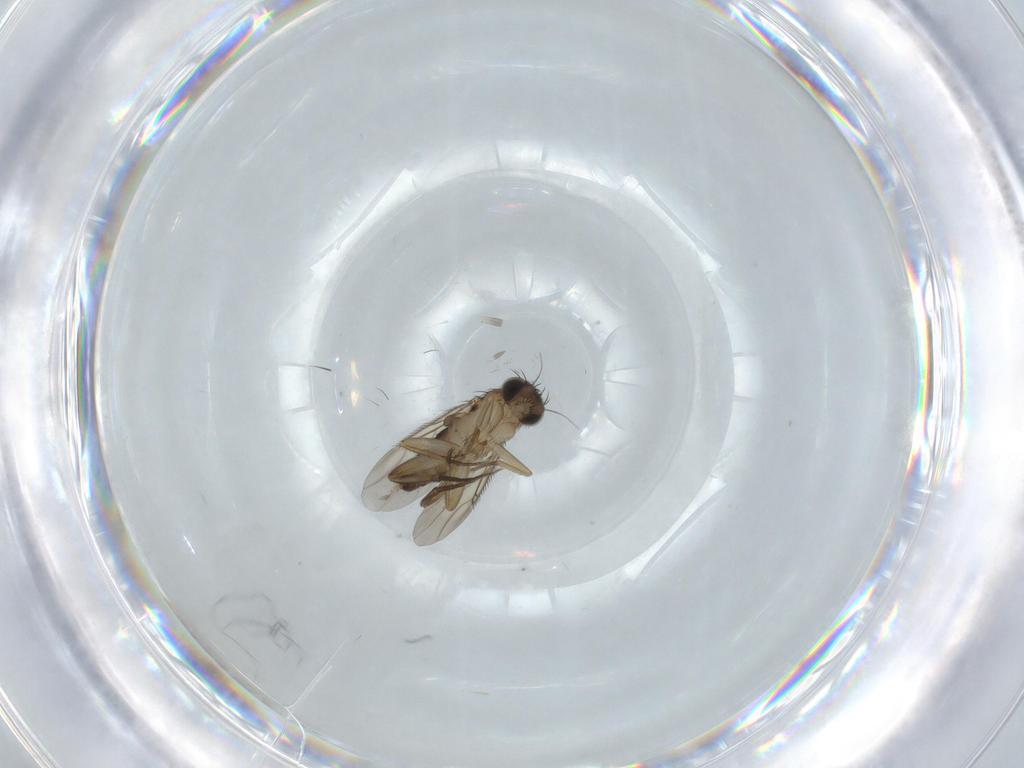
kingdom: Animalia
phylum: Arthropoda
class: Insecta
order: Diptera
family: Phoridae
